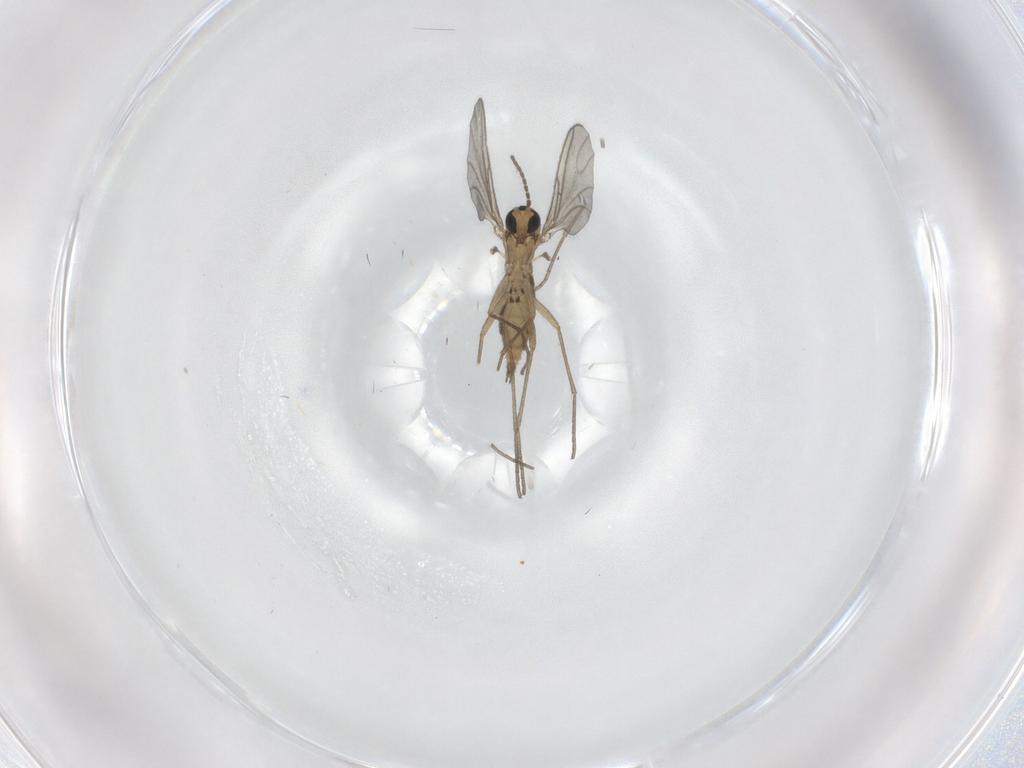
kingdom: Animalia
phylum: Arthropoda
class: Insecta
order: Diptera
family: Sciaridae
